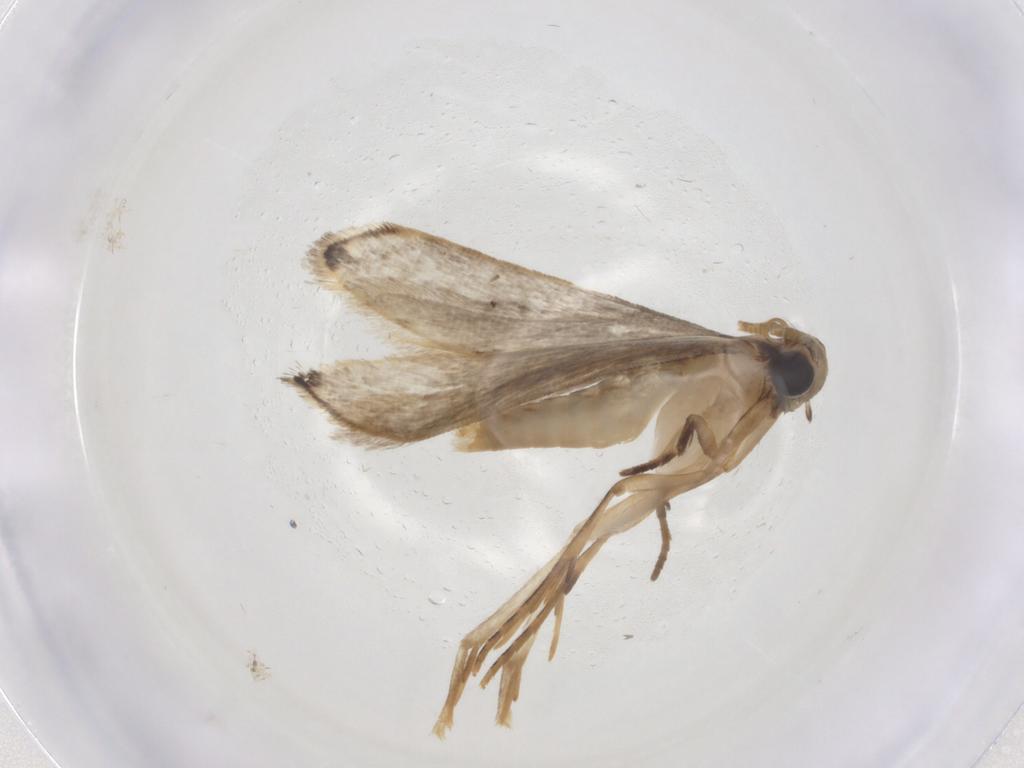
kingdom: Animalia
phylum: Arthropoda
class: Insecta
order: Lepidoptera
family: Tineidae
